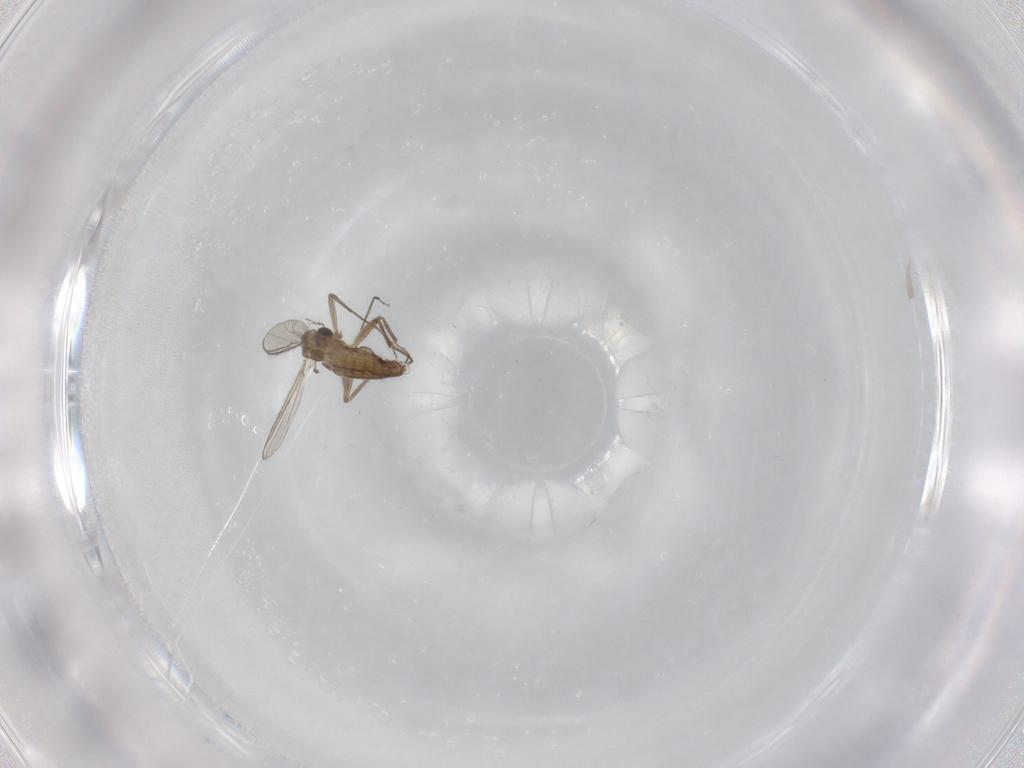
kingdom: Animalia
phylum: Arthropoda
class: Insecta
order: Diptera
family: Chironomidae
